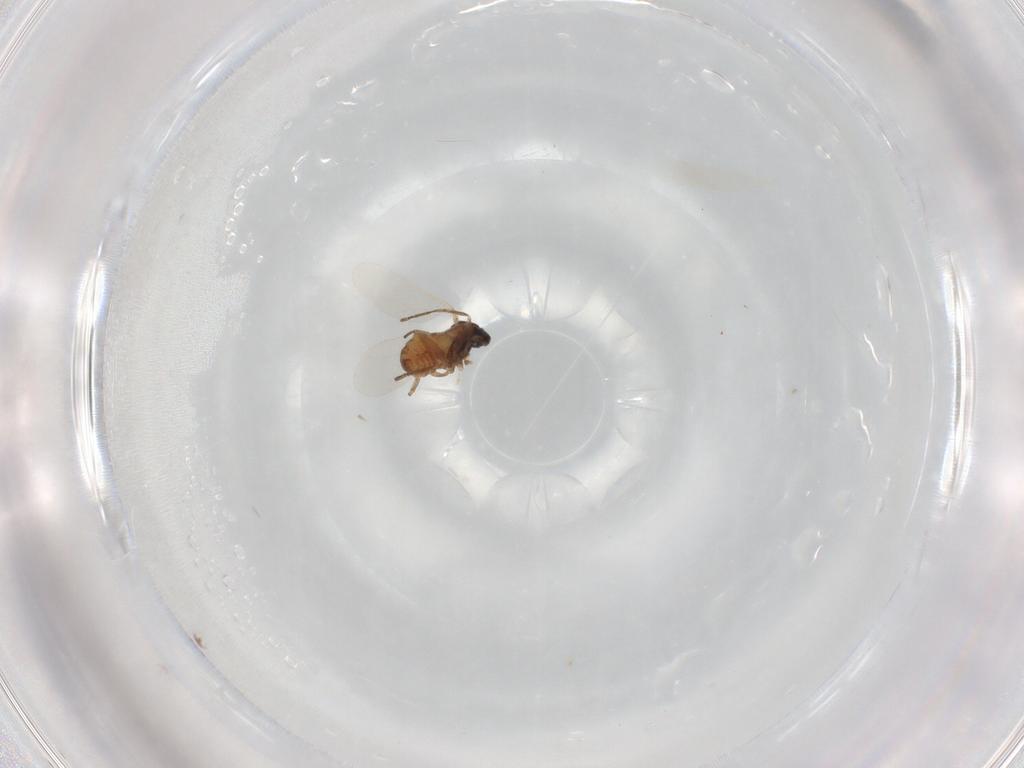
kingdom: Animalia
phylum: Arthropoda
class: Insecta
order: Diptera
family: Cecidomyiidae
